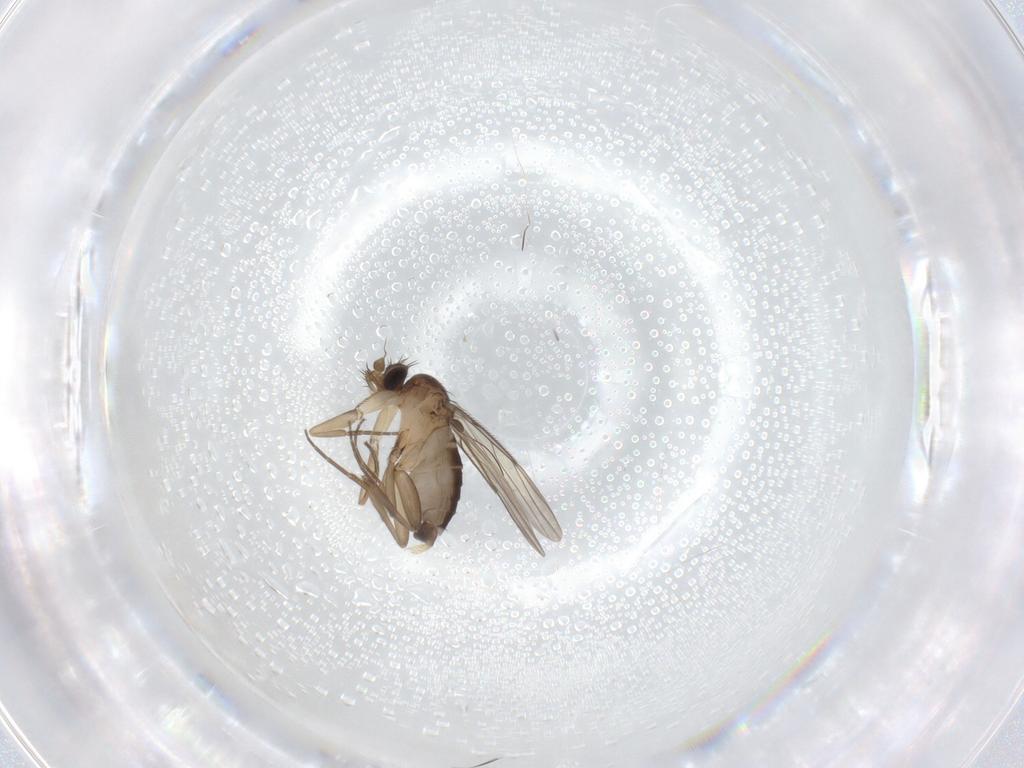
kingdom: Animalia
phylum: Arthropoda
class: Insecta
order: Diptera
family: Phoridae
